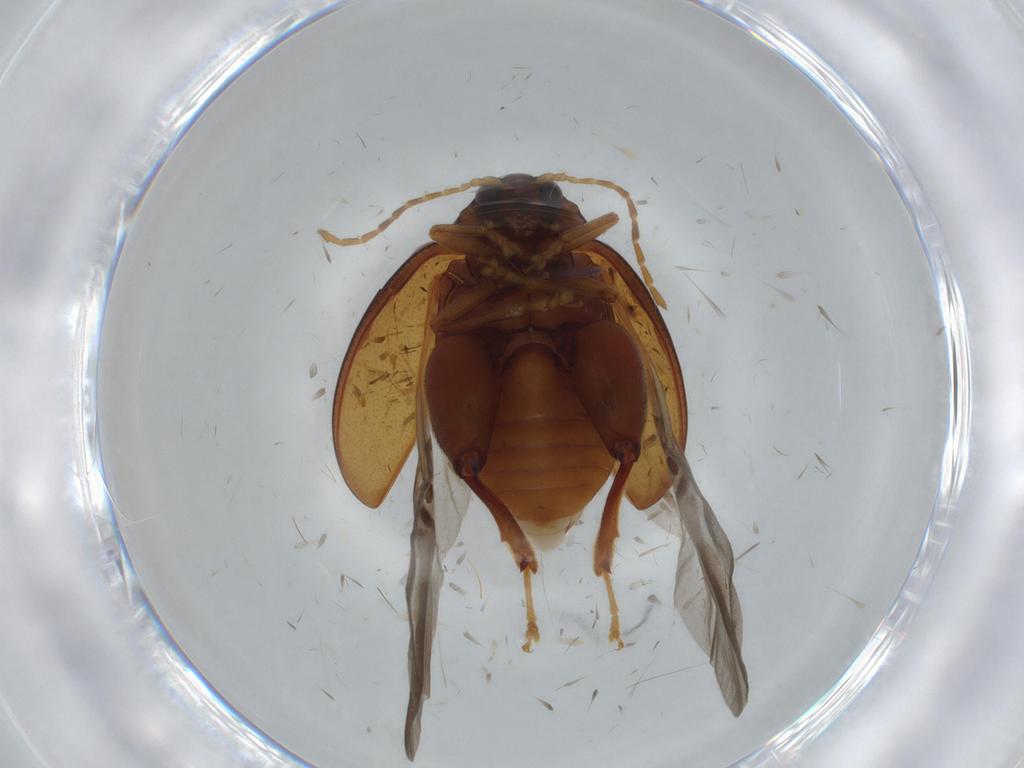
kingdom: Animalia
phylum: Arthropoda
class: Insecta
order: Coleoptera
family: Chrysomelidae
